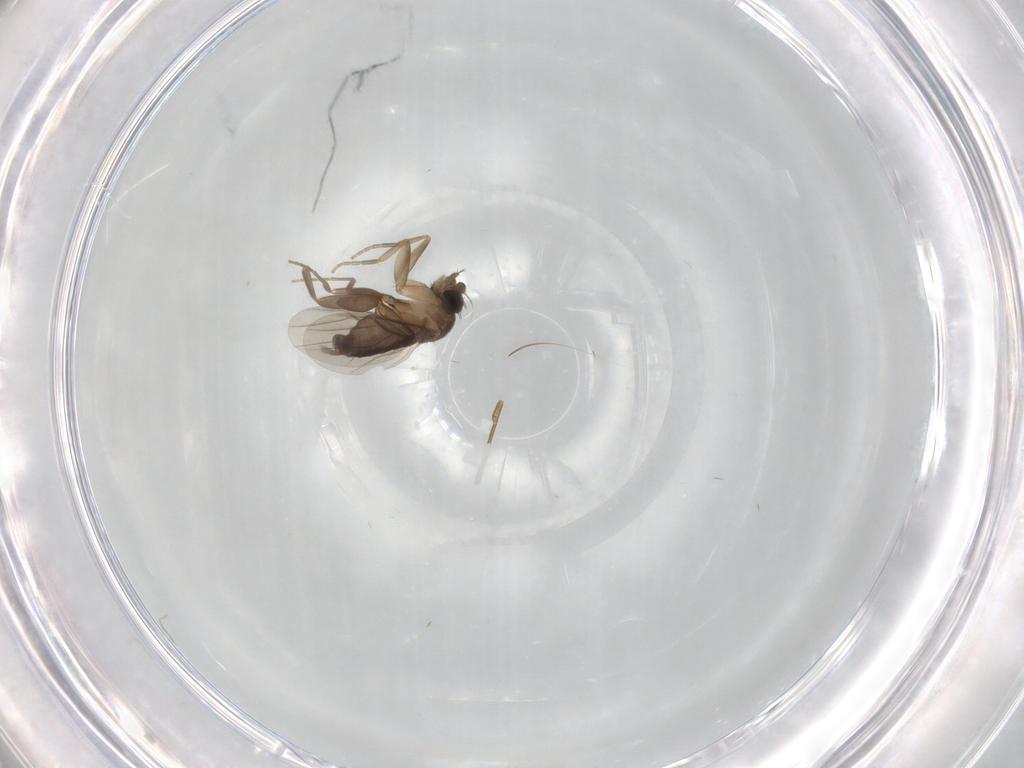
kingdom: Animalia
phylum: Arthropoda
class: Insecta
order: Diptera
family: Phoridae
